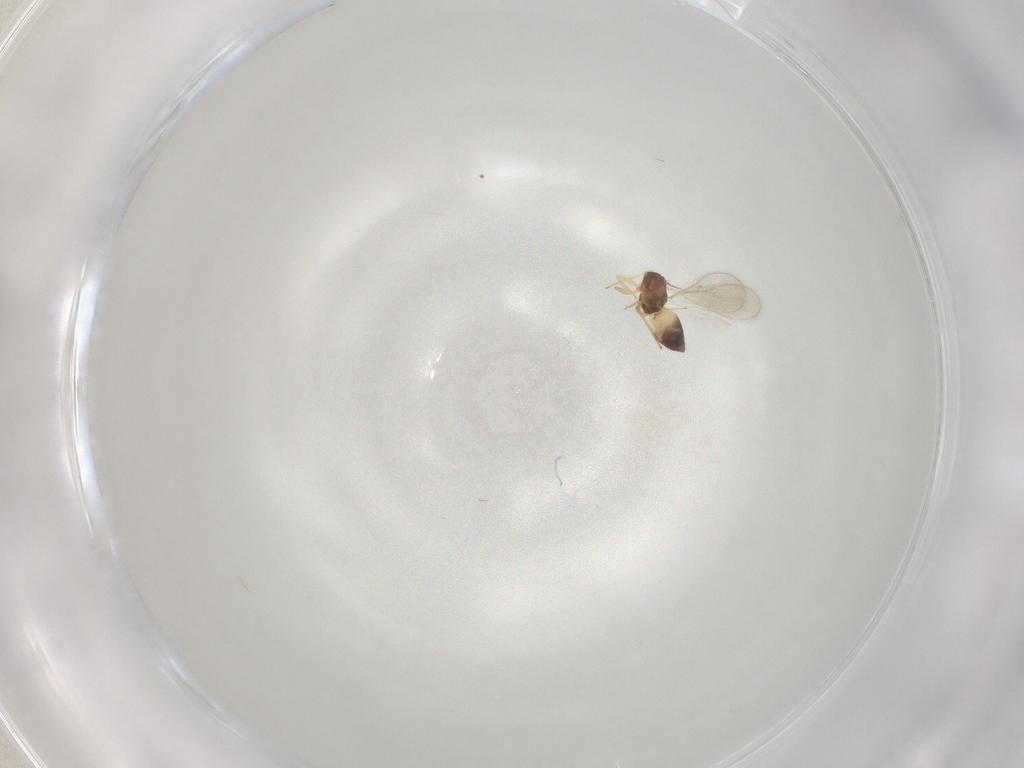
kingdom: Animalia
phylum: Arthropoda
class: Insecta
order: Hymenoptera
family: Eulophidae
